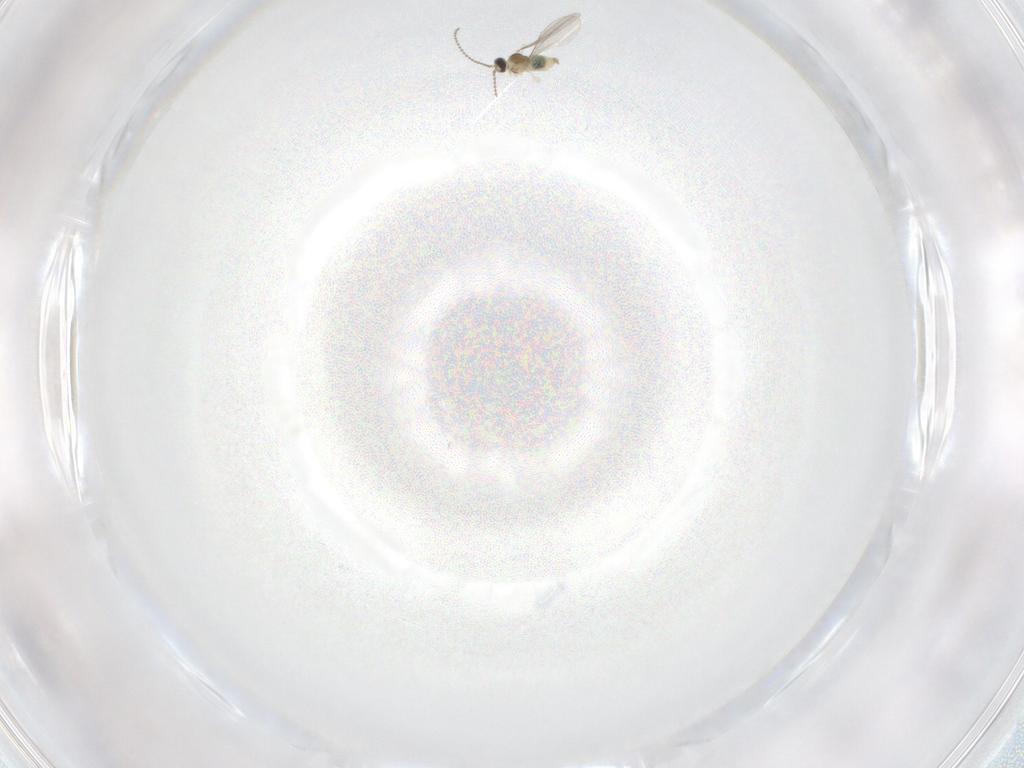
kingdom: Animalia
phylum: Arthropoda
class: Insecta
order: Diptera
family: Cecidomyiidae
